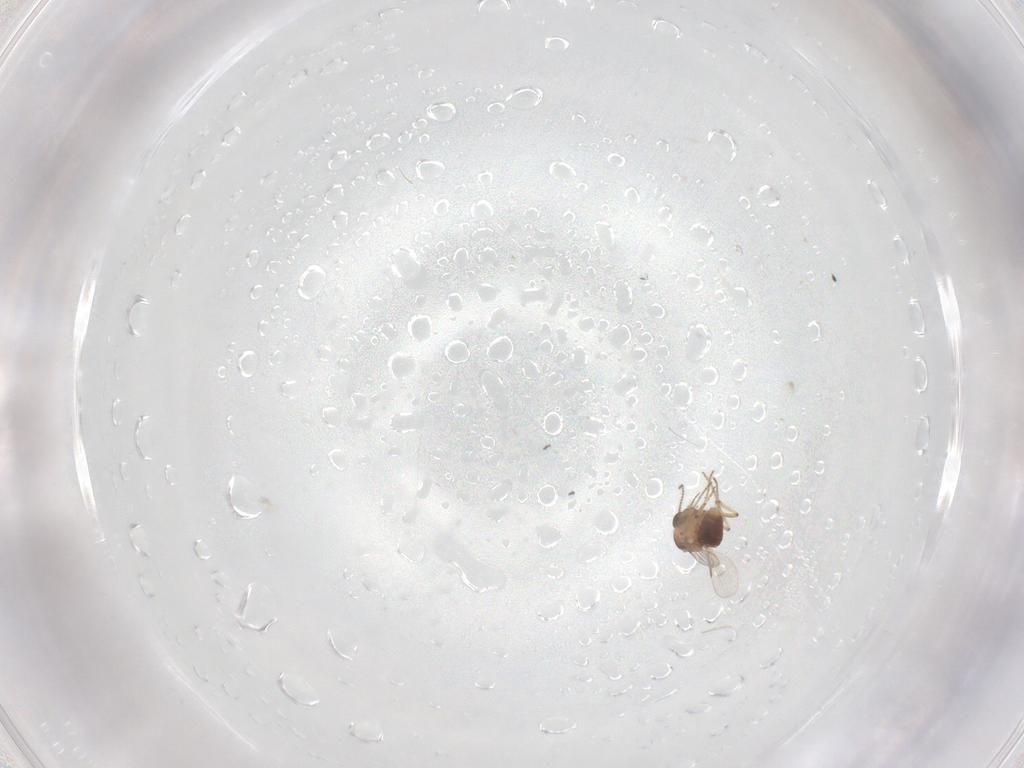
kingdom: Animalia
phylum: Arthropoda
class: Insecta
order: Diptera
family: Ceratopogonidae
